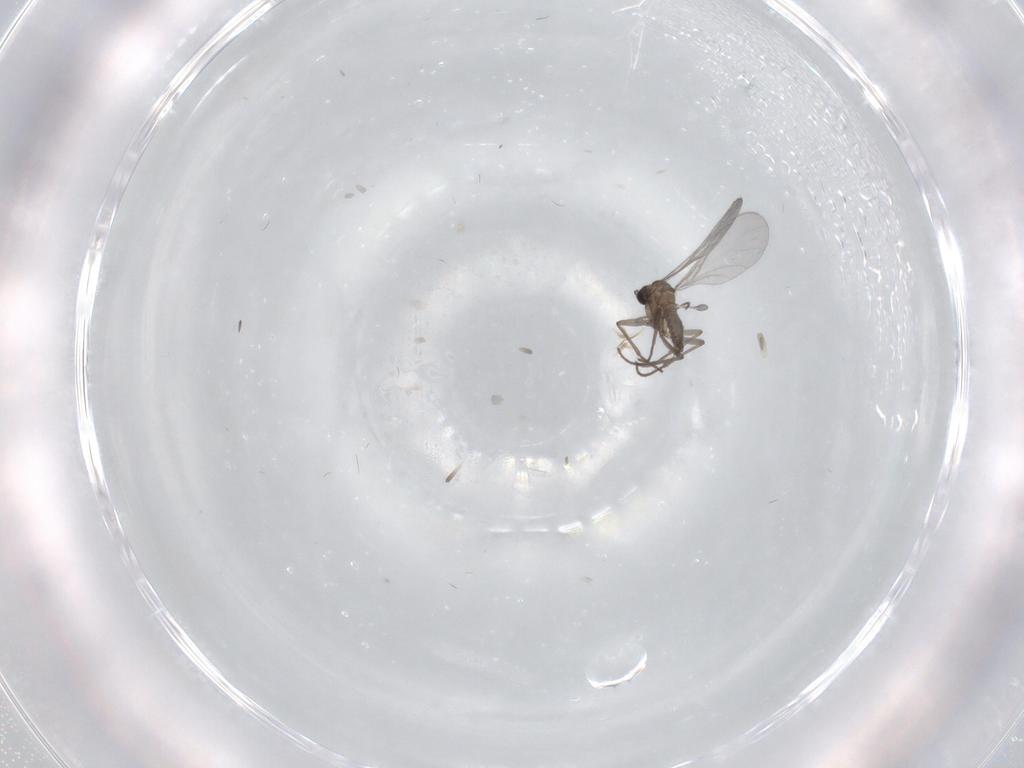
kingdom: Animalia
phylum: Arthropoda
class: Insecta
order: Diptera
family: Sciaridae
